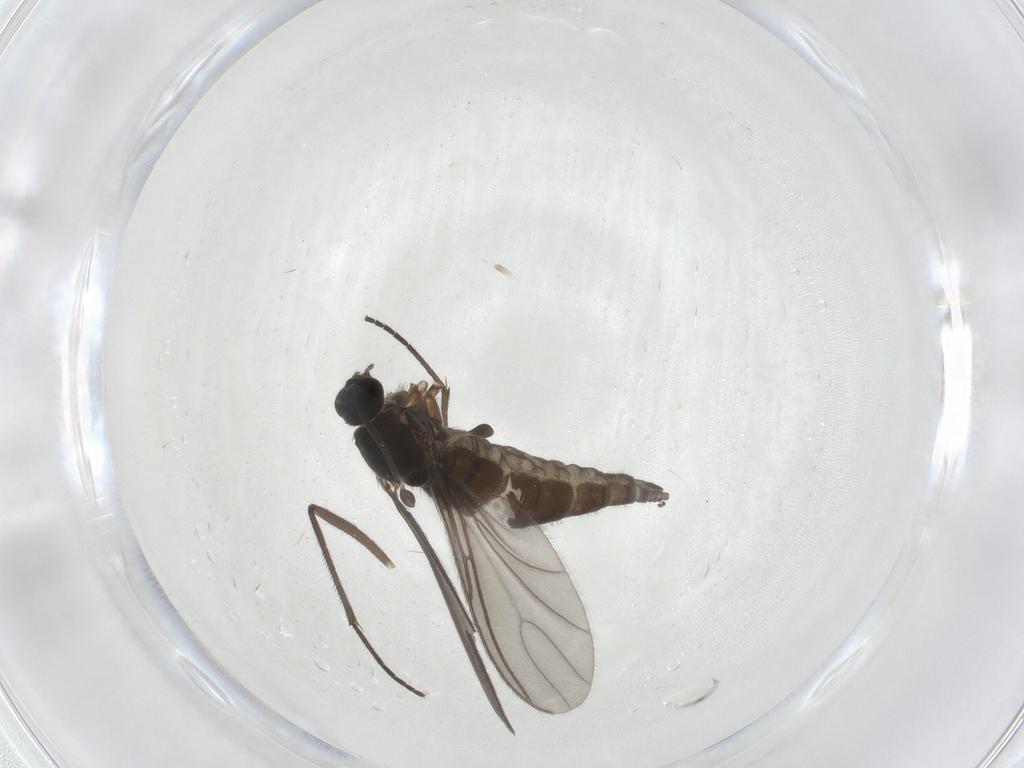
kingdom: Animalia
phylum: Arthropoda
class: Insecta
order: Diptera
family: Sciaridae
